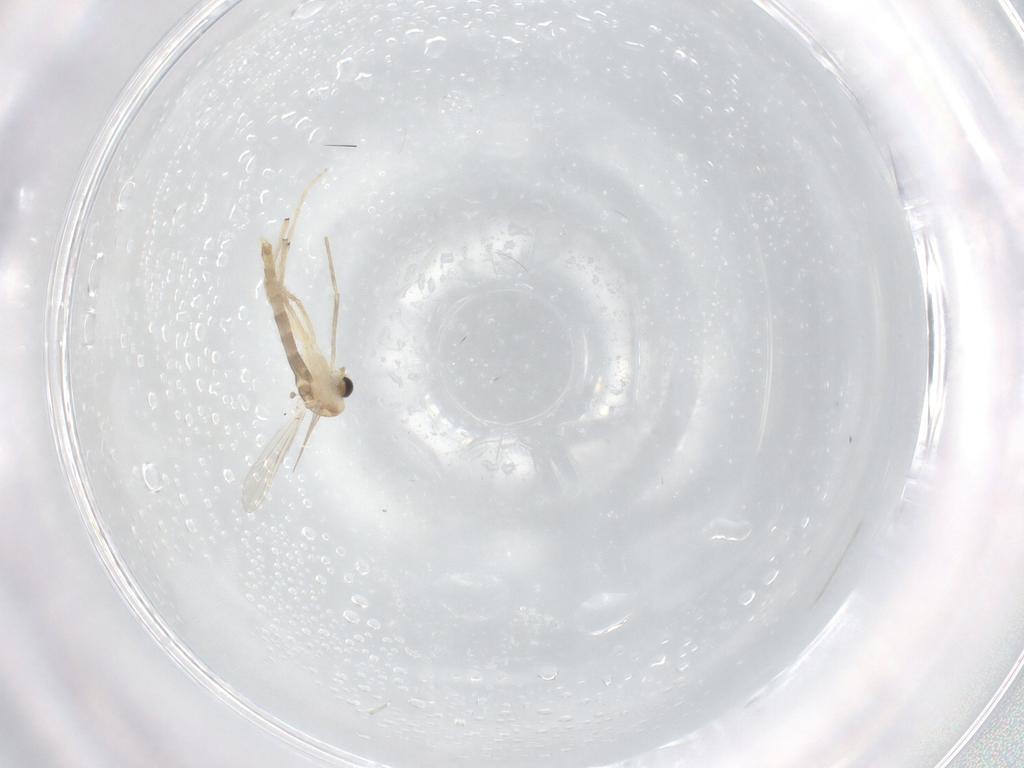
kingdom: Animalia
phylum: Arthropoda
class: Insecta
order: Diptera
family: Chironomidae
